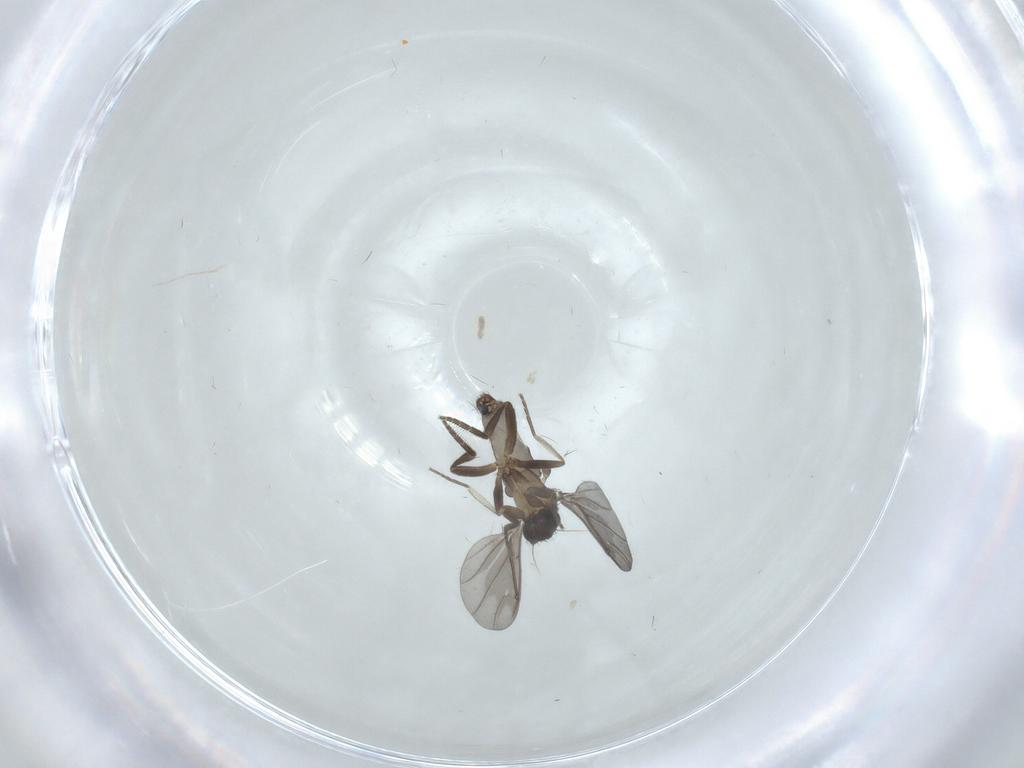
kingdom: Animalia
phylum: Arthropoda
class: Insecta
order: Diptera
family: Phoridae
